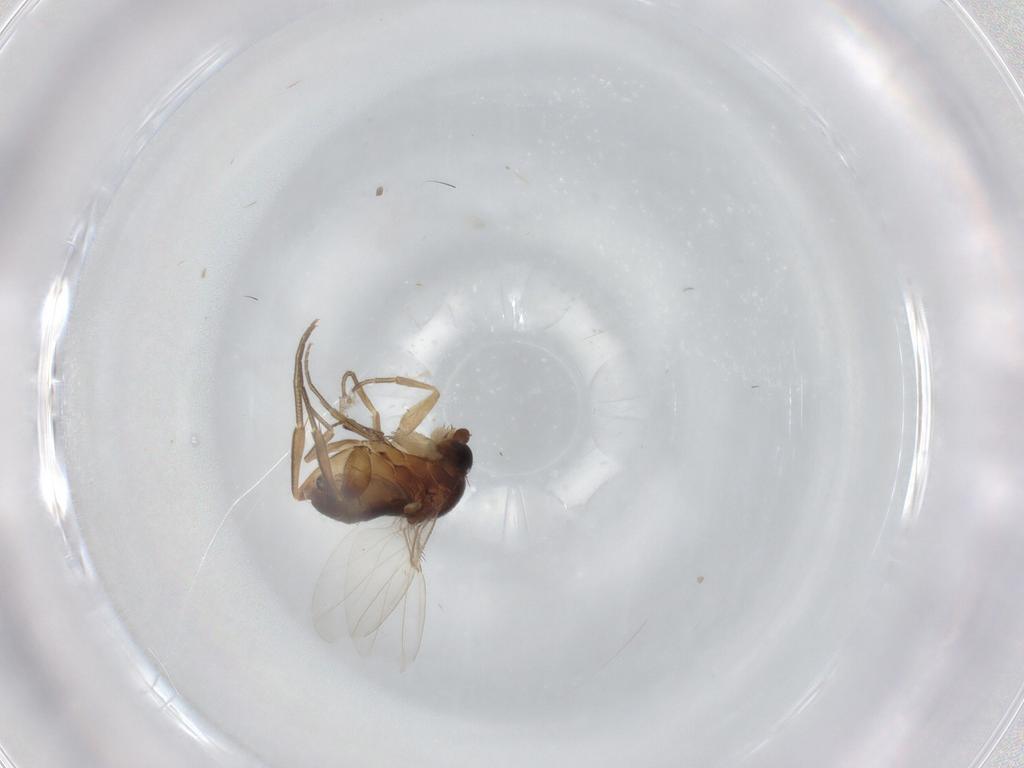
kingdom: Animalia
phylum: Arthropoda
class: Insecta
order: Diptera
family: Phoridae
